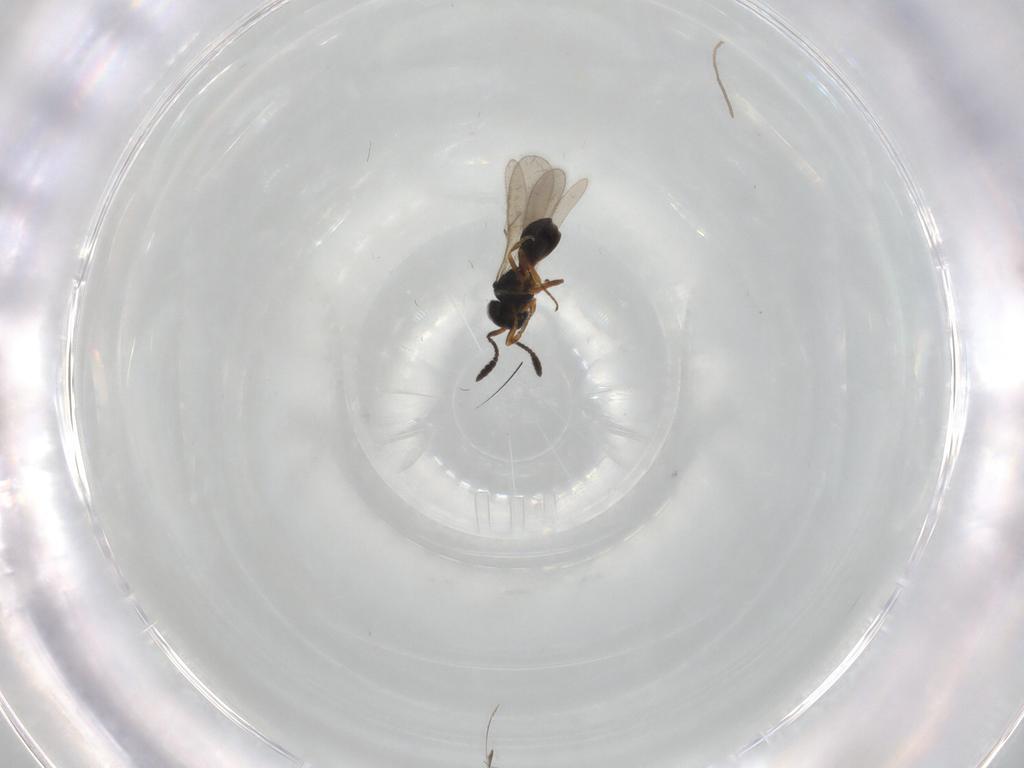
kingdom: Animalia
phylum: Arthropoda
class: Insecta
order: Hymenoptera
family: Scelionidae
